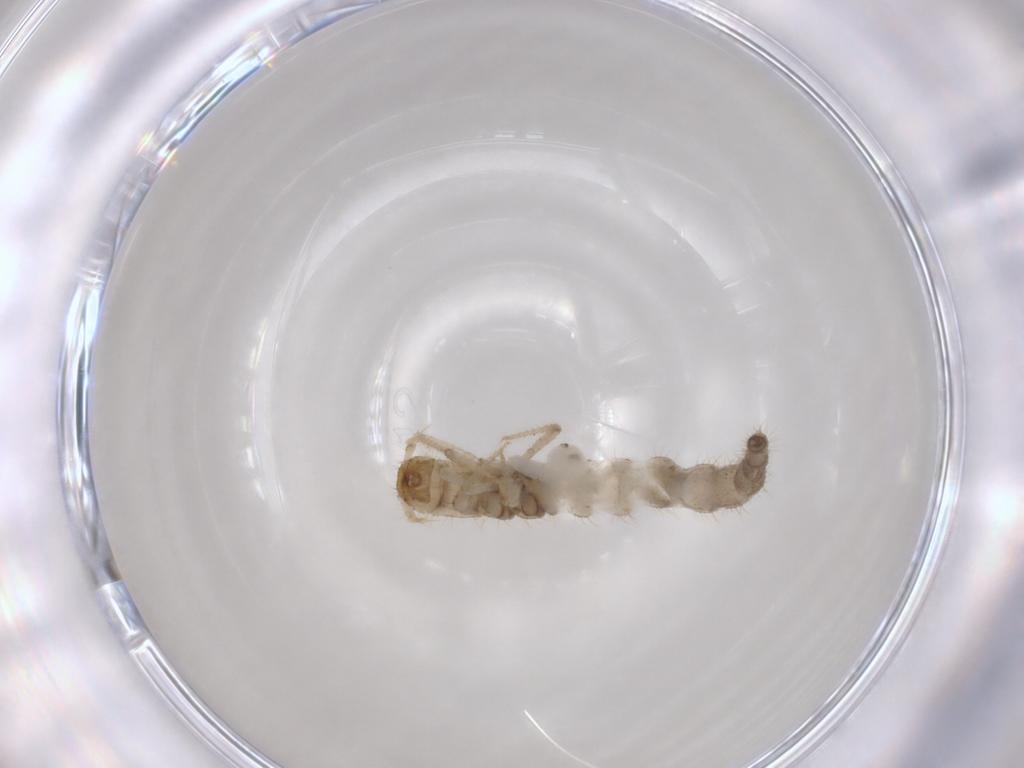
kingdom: Animalia
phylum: Arthropoda
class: Insecta
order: Coleoptera
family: Staphylinidae
